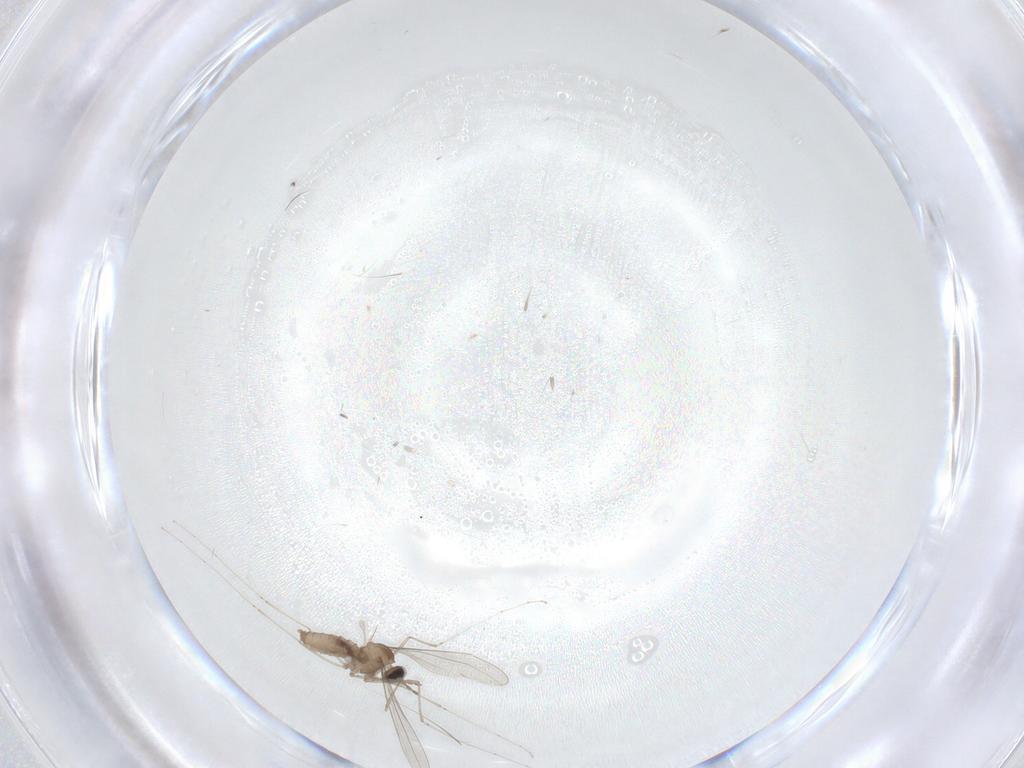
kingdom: Animalia
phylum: Arthropoda
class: Insecta
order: Diptera
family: Cecidomyiidae
